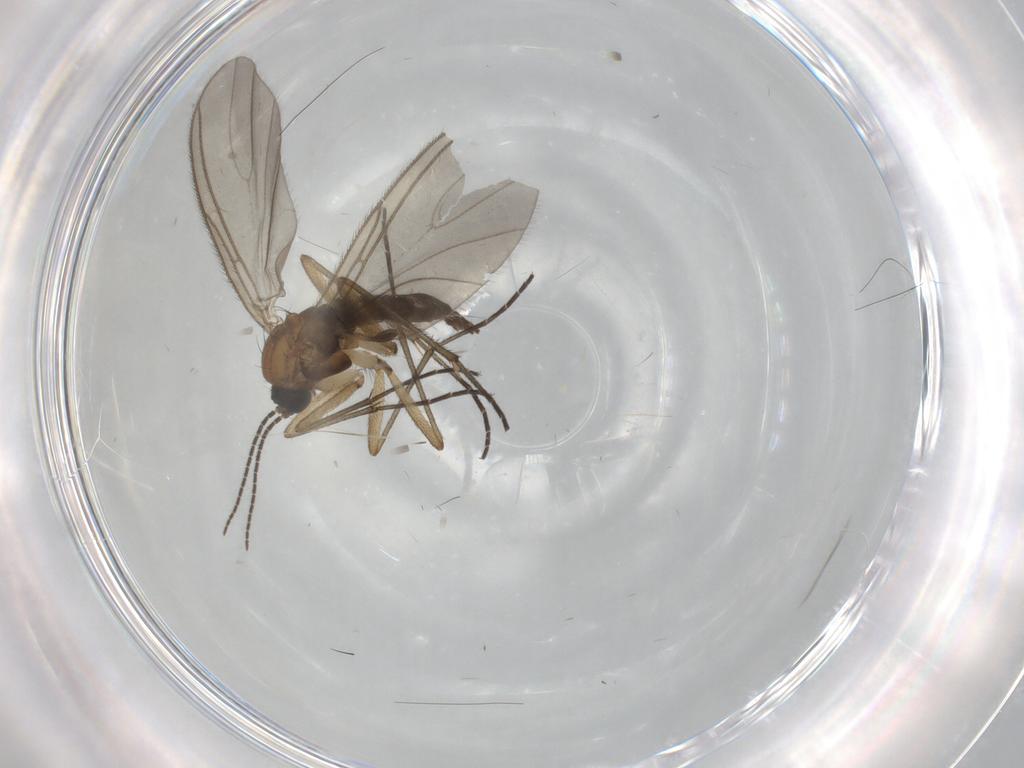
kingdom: Animalia
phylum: Arthropoda
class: Insecta
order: Diptera
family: Sciaridae
